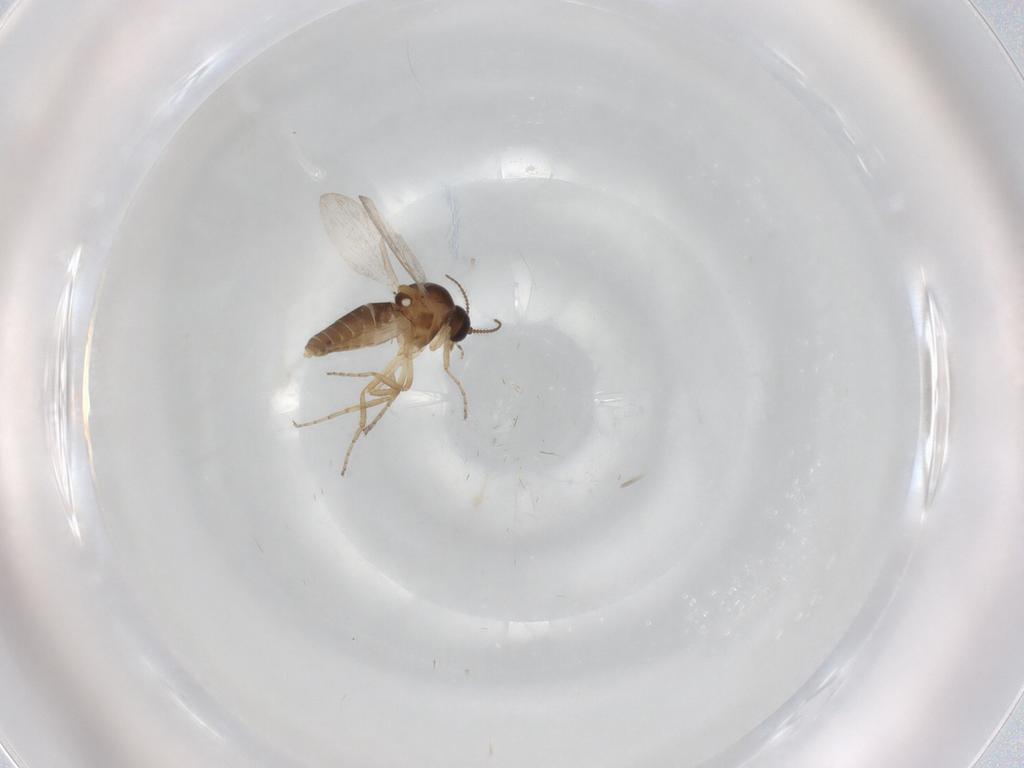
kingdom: Animalia
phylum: Arthropoda
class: Insecta
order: Diptera
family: Ceratopogonidae
